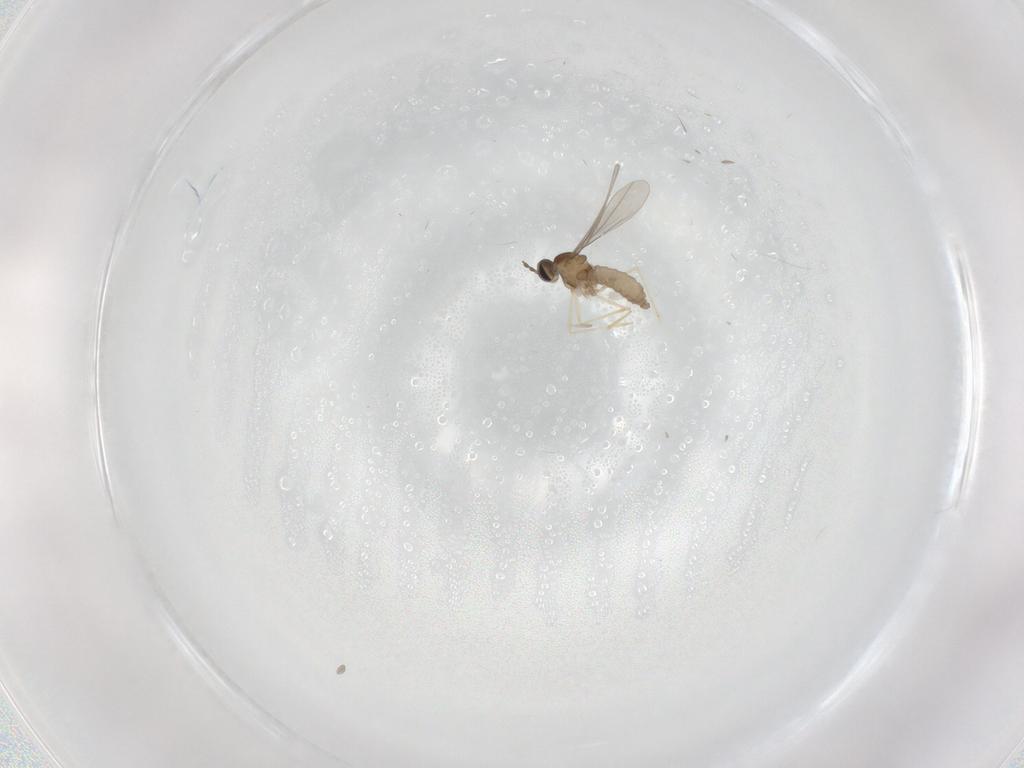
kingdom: Animalia
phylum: Arthropoda
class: Insecta
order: Diptera
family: Cecidomyiidae
